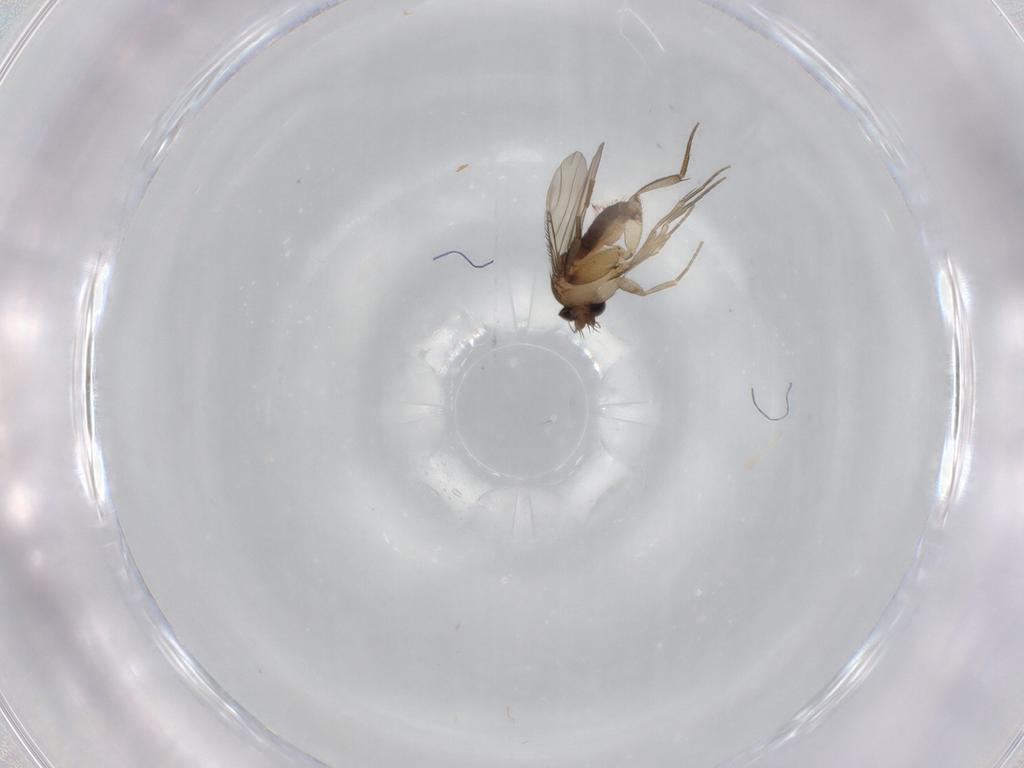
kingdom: Animalia
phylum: Arthropoda
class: Insecta
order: Diptera
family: Phoridae
